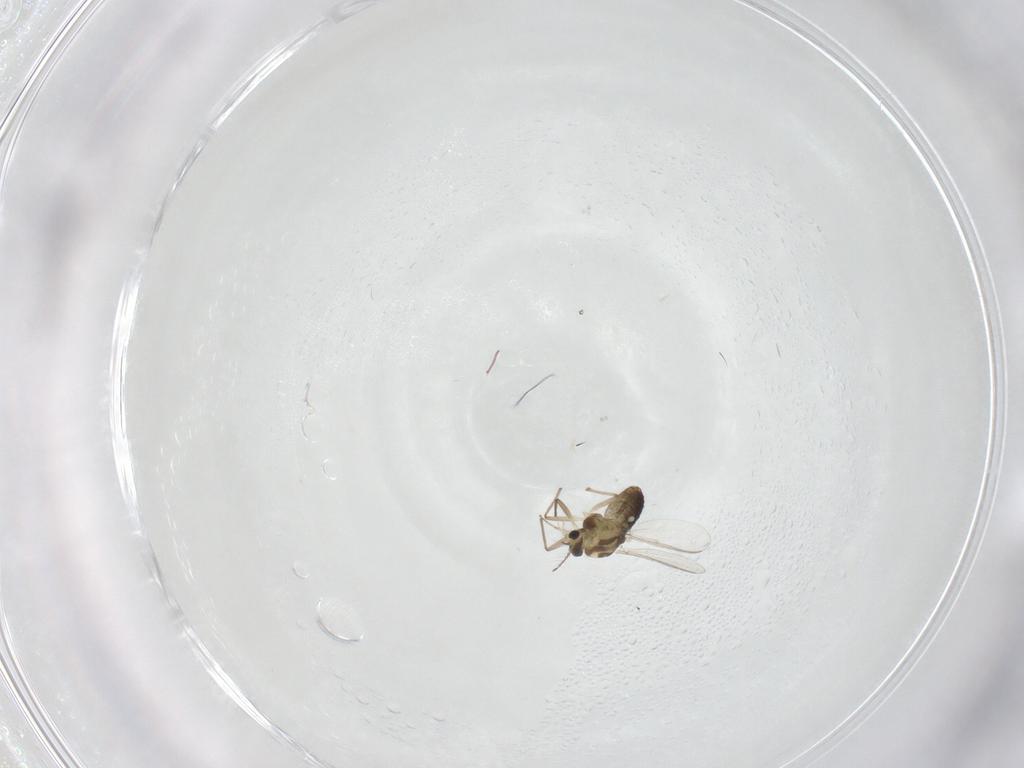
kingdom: Animalia
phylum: Arthropoda
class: Insecta
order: Diptera
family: Chironomidae
